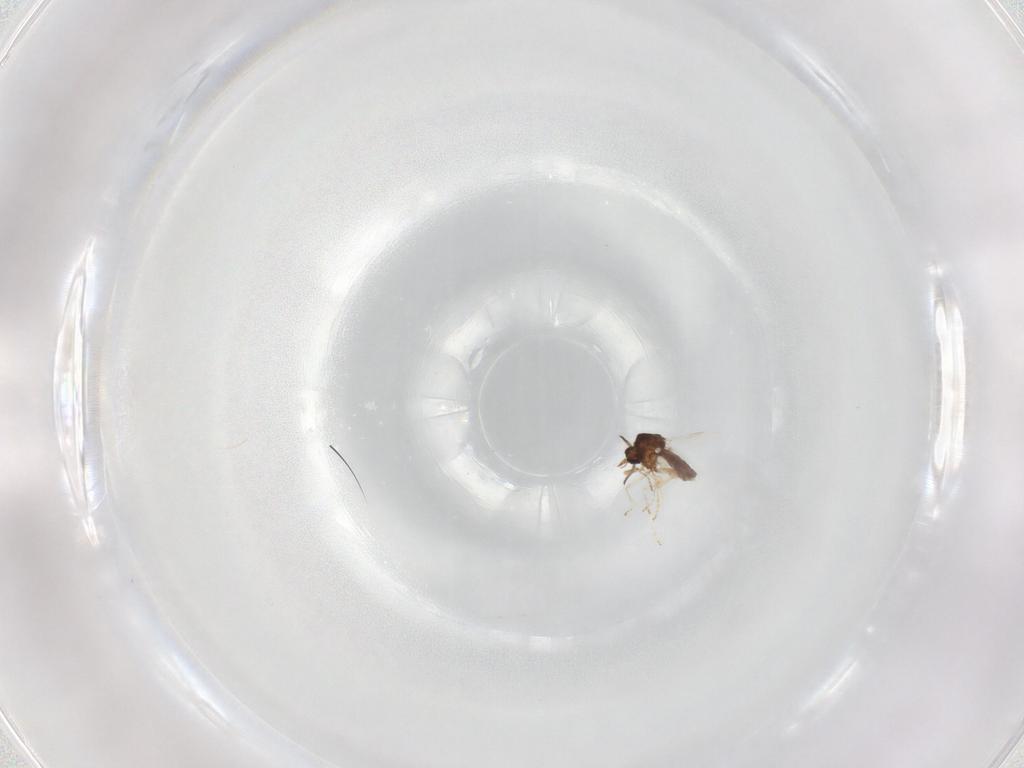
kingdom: Animalia
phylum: Arthropoda
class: Insecta
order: Diptera
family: Ceratopogonidae
